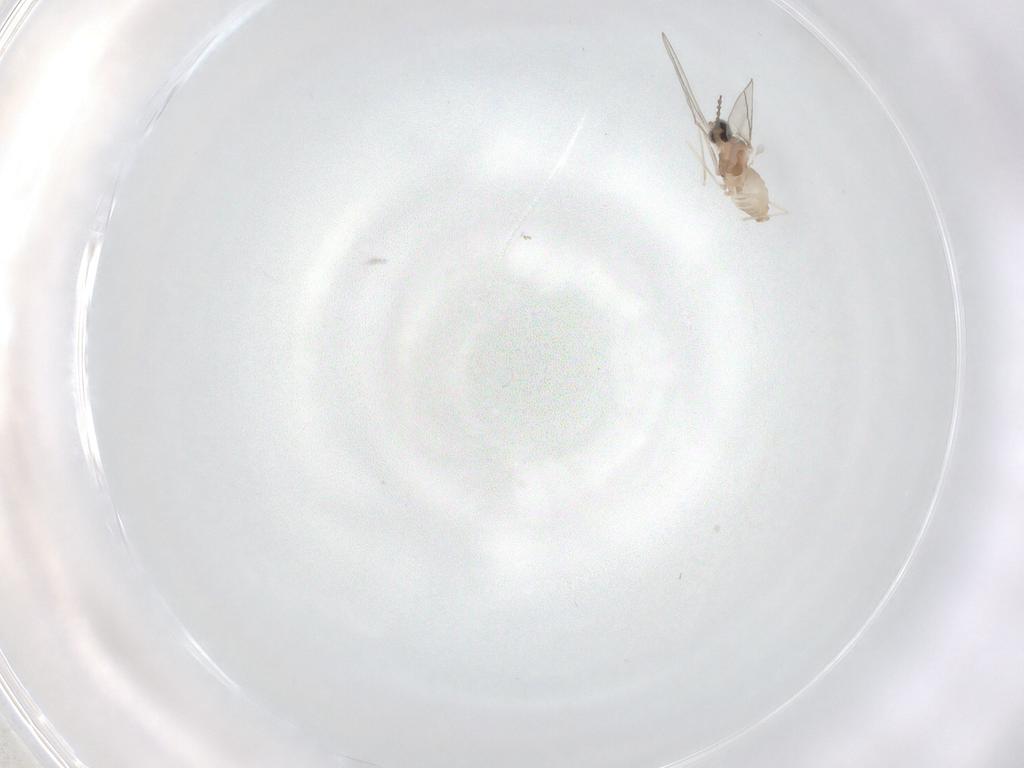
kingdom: Animalia
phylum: Arthropoda
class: Insecta
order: Diptera
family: Cecidomyiidae
